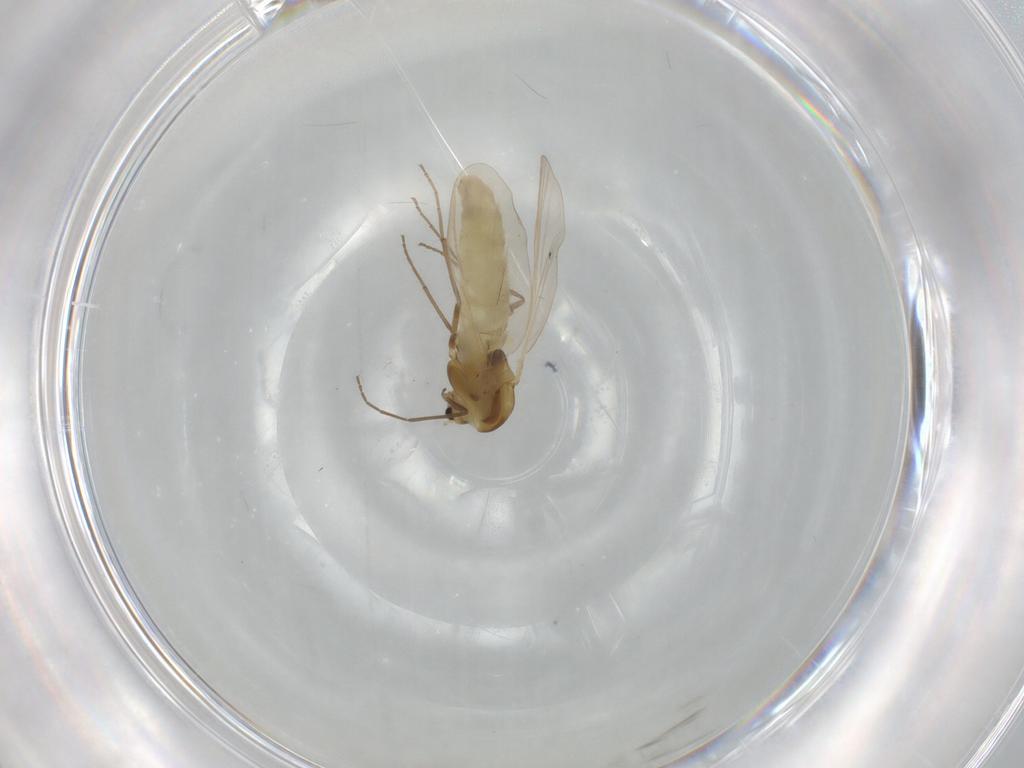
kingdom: Animalia
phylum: Arthropoda
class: Insecta
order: Diptera
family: Chironomidae
